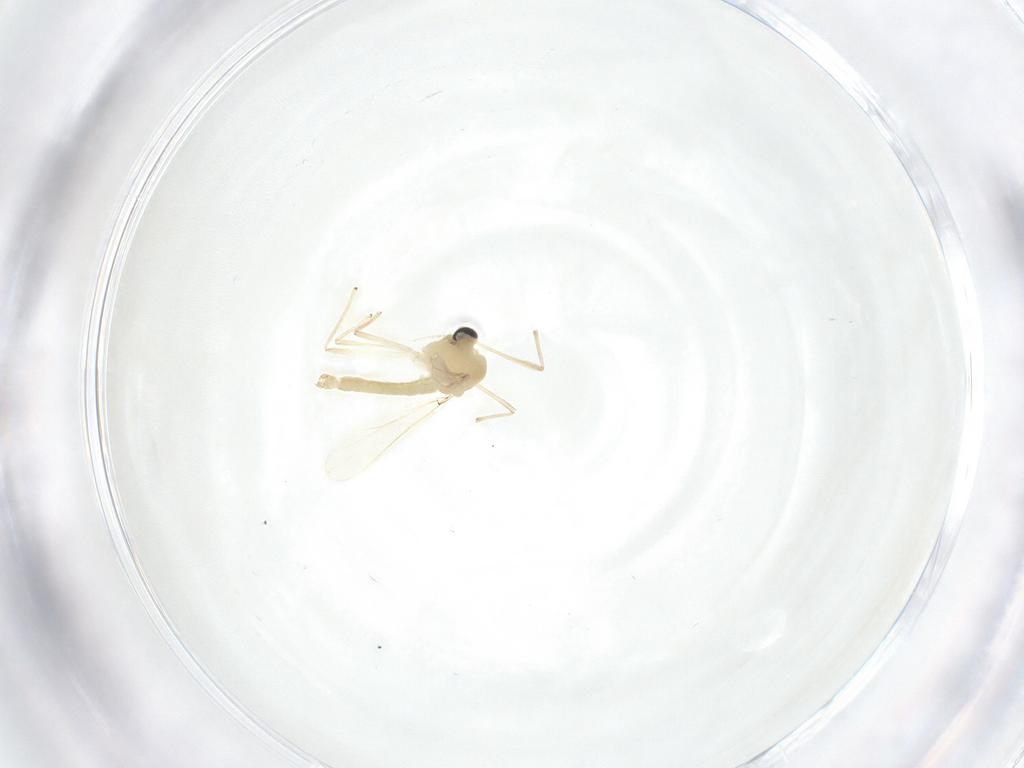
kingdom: Animalia
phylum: Arthropoda
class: Insecta
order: Diptera
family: Chironomidae
